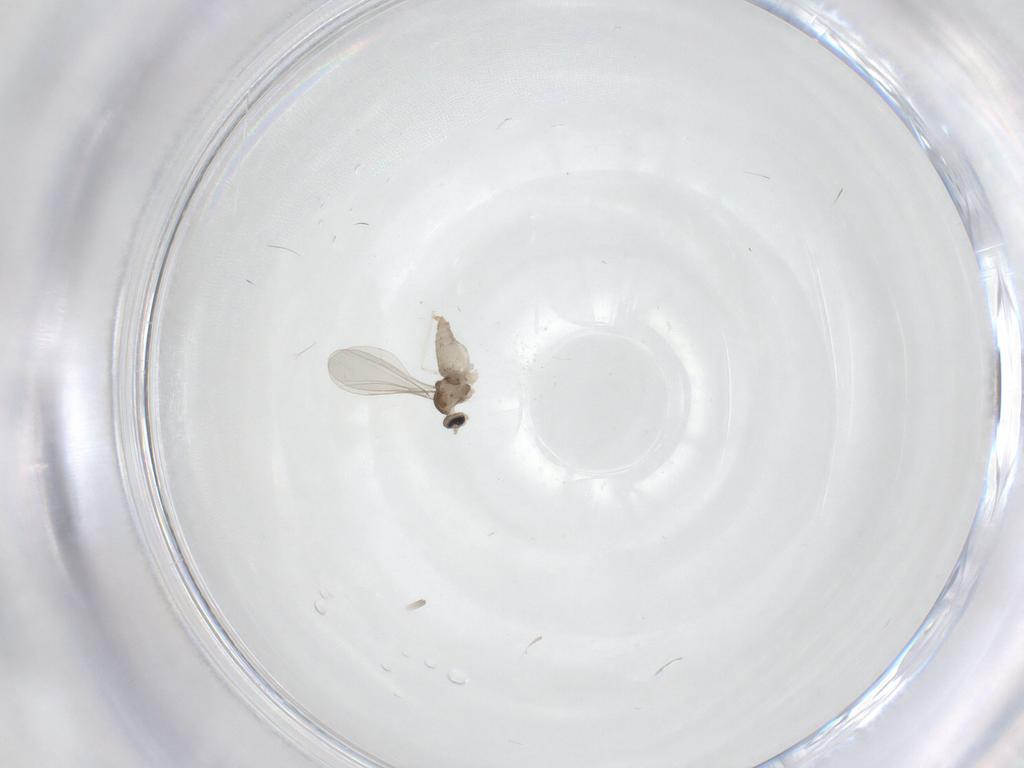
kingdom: Animalia
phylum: Arthropoda
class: Insecta
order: Diptera
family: Cecidomyiidae
